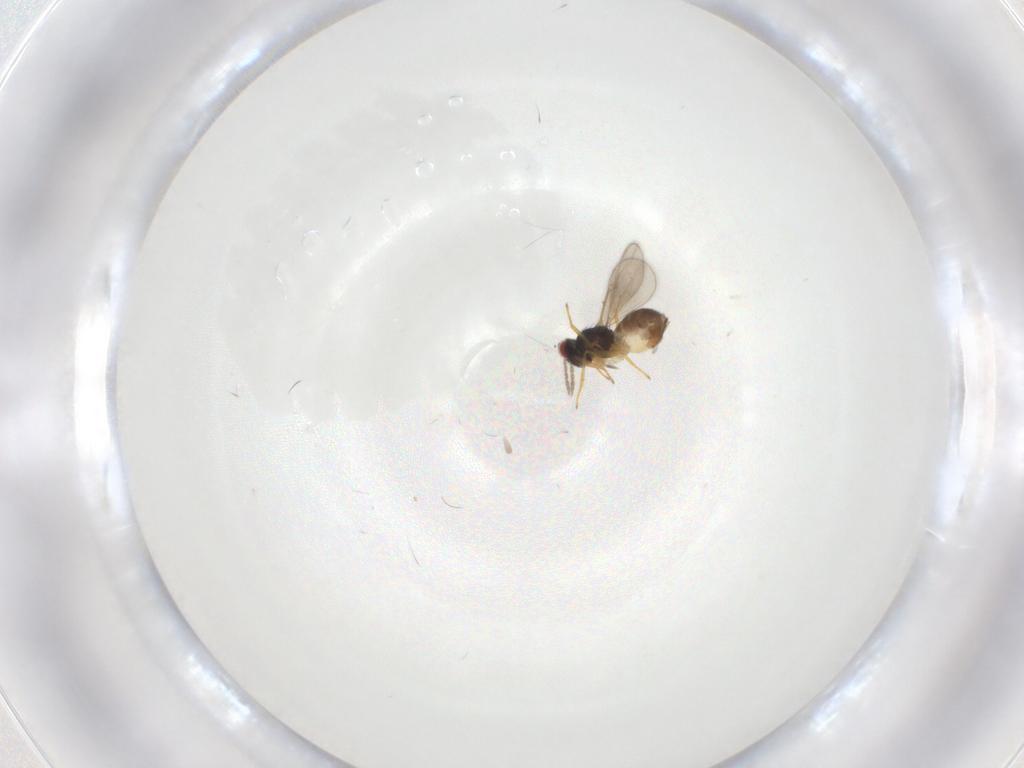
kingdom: Animalia
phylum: Arthropoda
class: Insecta
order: Hymenoptera
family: Eulophidae
